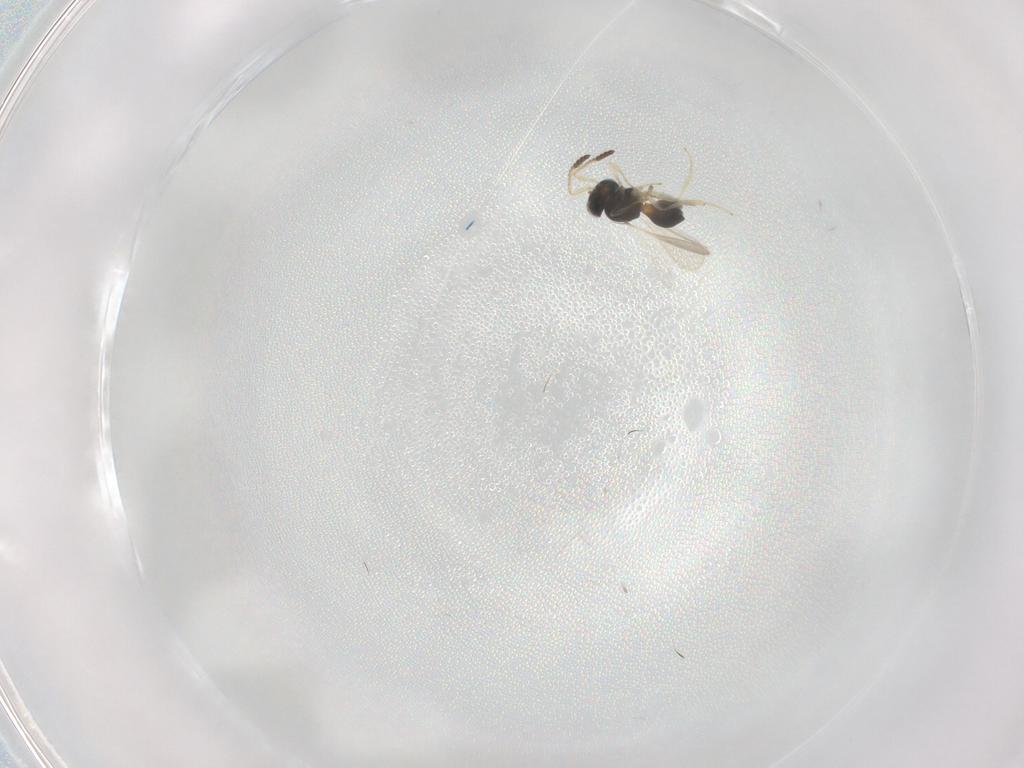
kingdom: Animalia
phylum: Arthropoda
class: Insecta
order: Hymenoptera
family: Scelionidae
